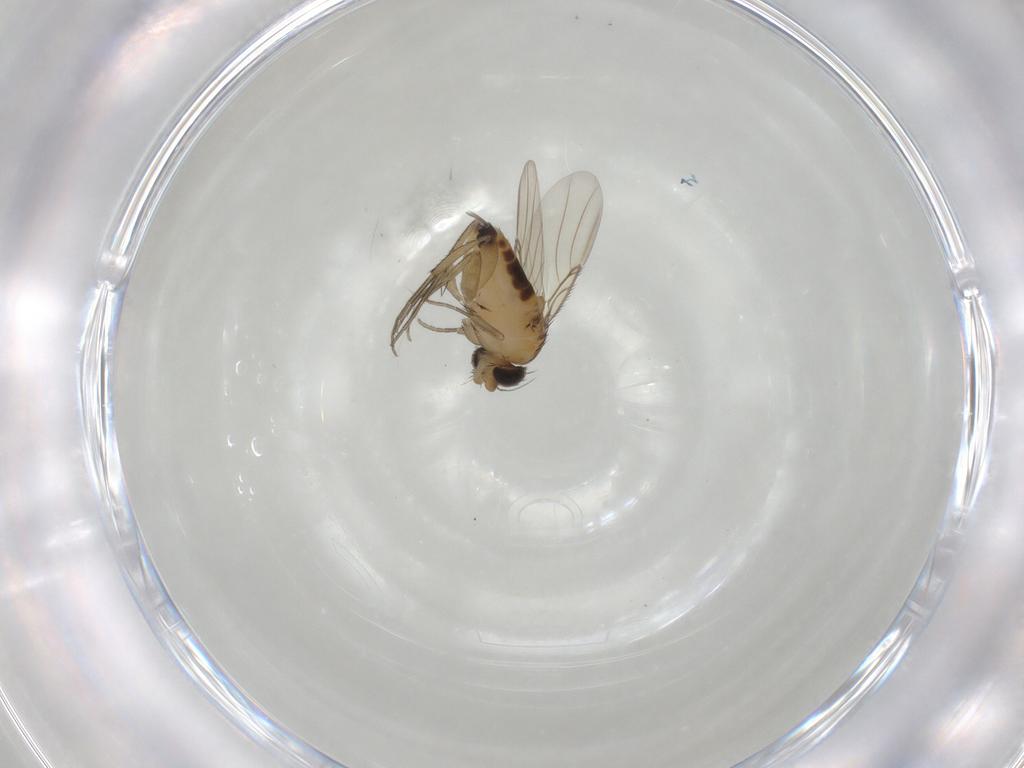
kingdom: Animalia
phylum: Arthropoda
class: Insecta
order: Diptera
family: Phoridae
